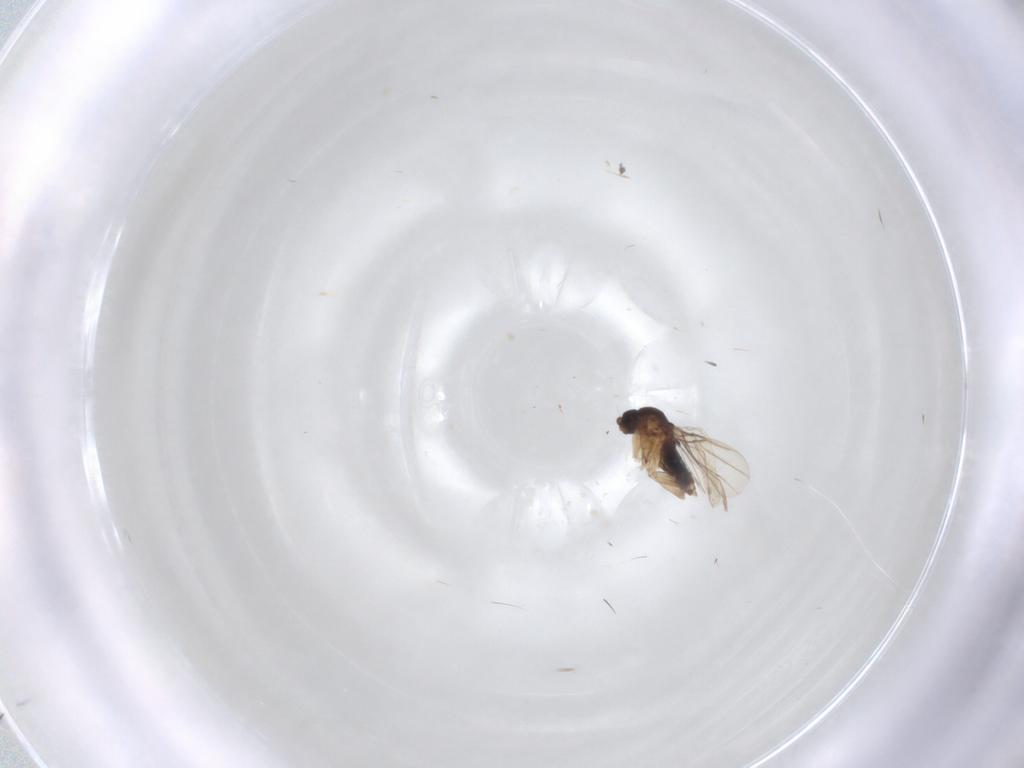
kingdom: Animalia
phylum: Arthropoda
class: Insecta
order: Diptera
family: Phoridae
